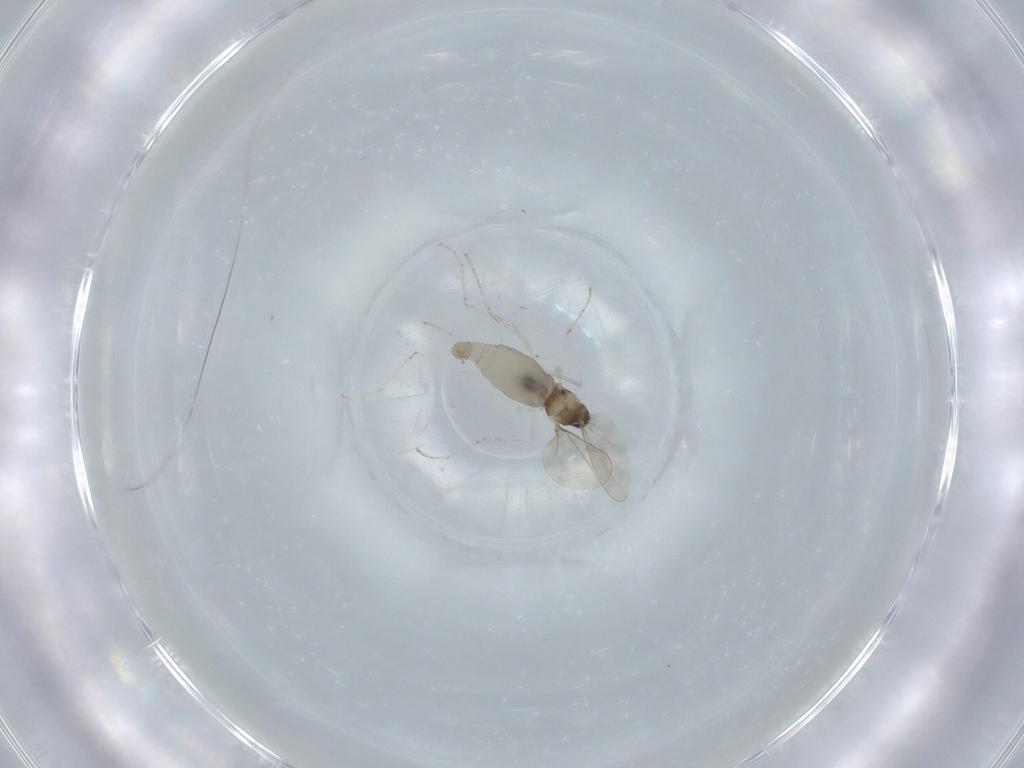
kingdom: Animalia
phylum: Arthropoda
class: Insecta
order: Diptera
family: Cecidomyiidae
